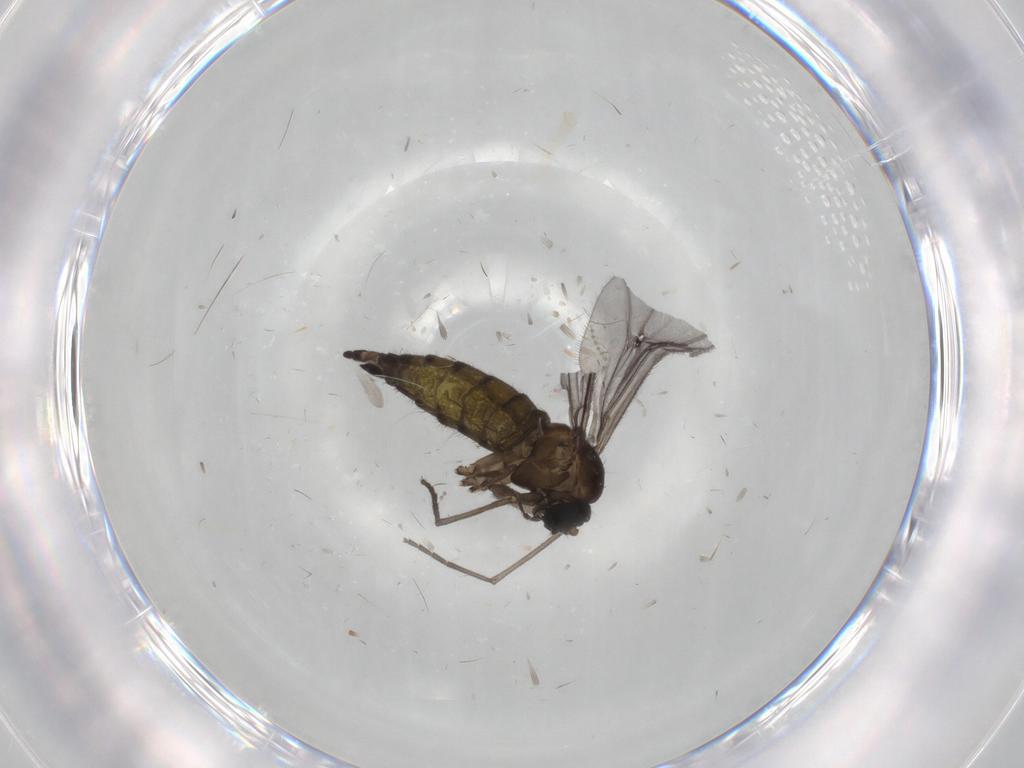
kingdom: Animalia
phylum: Arthropoda
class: Insecta
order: Diptera
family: Sciaridae
